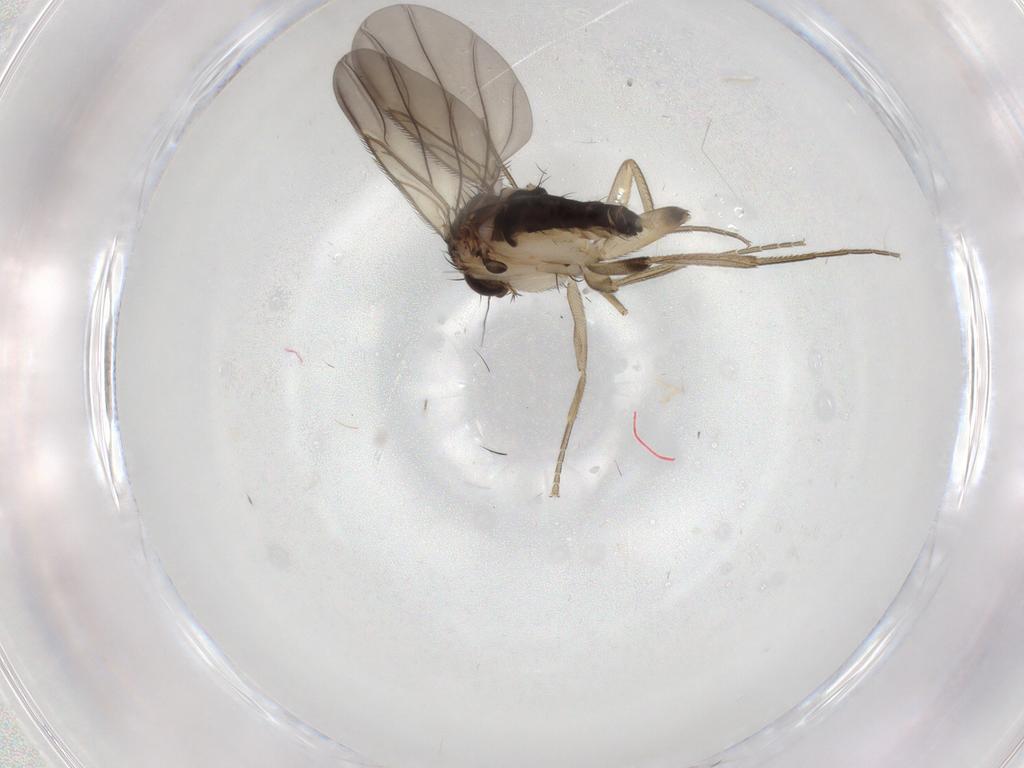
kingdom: Animalia
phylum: Arthropoda
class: Insecta
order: Diptera
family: Phoridae
